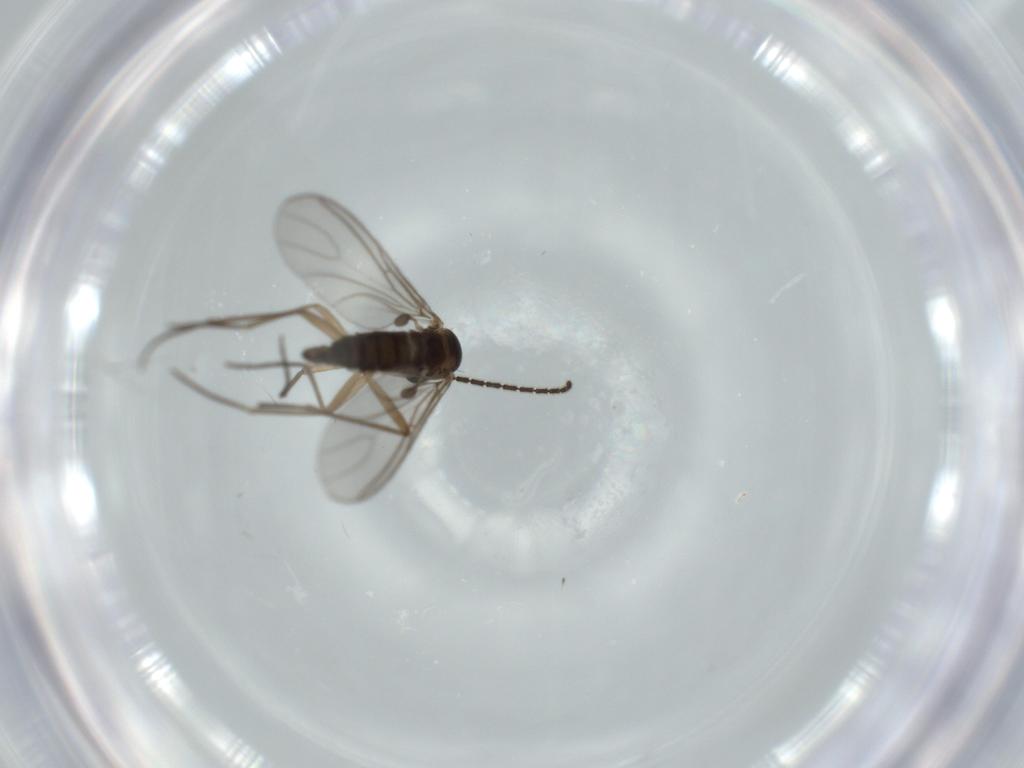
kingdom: Animalia
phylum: Arthropoda
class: Insecta
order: Diptera
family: Sciaridae
